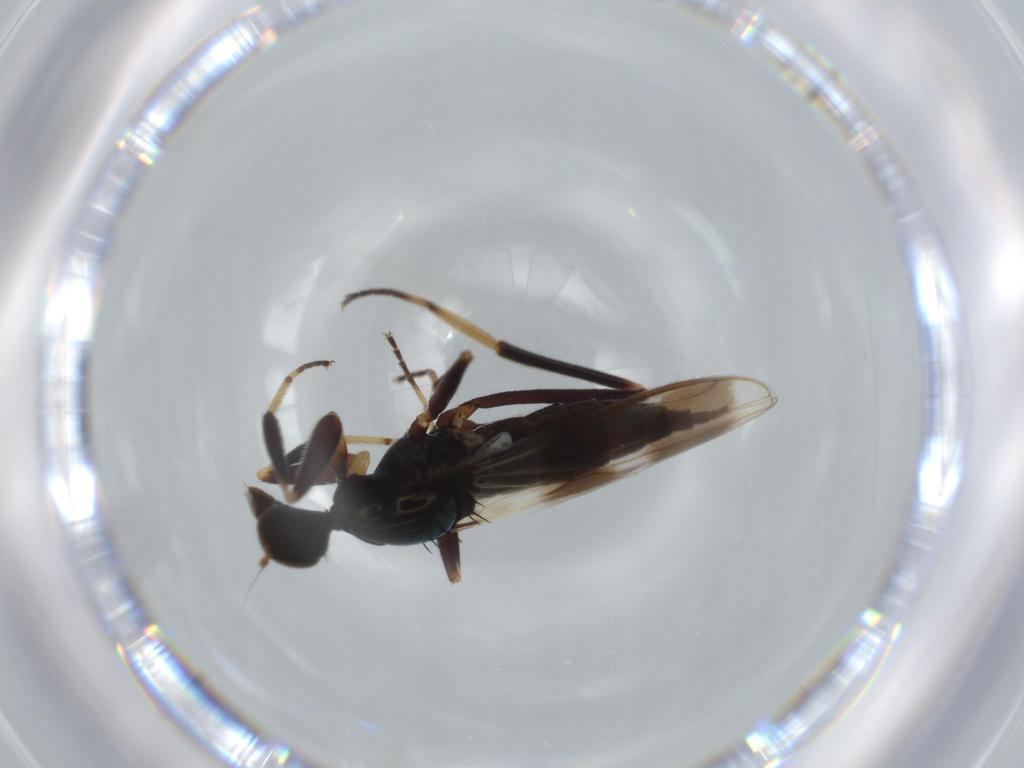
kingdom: Animalia
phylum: Arthropoda
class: Insecta
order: Diptera
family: Hybotidae
